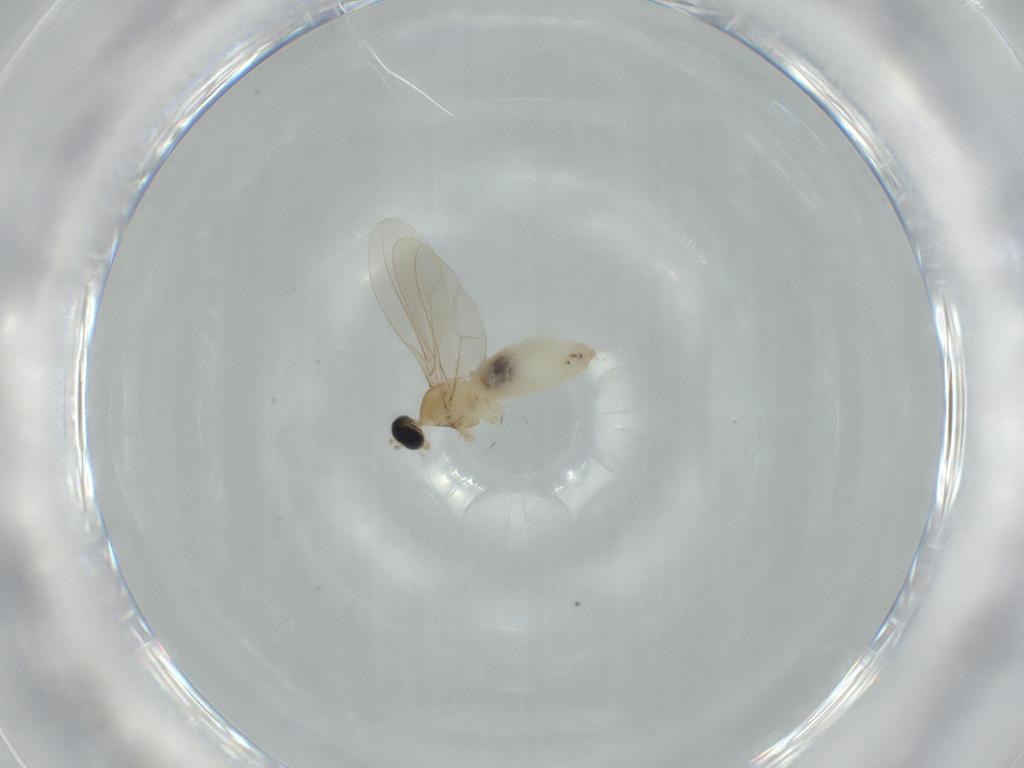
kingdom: Animalia
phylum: Arthropoda
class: Insecta
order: Diptera
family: Cecidomyiidae
